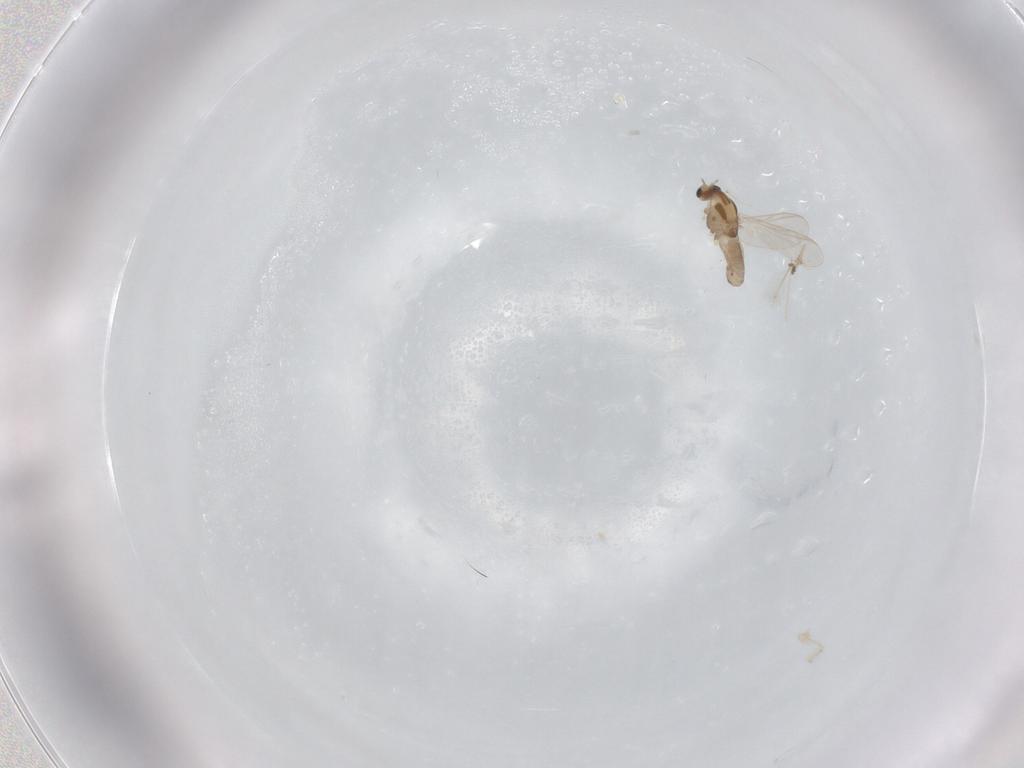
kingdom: Animalia
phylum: Arthropoda
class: Insecta
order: Diptera
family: Chironomidae
